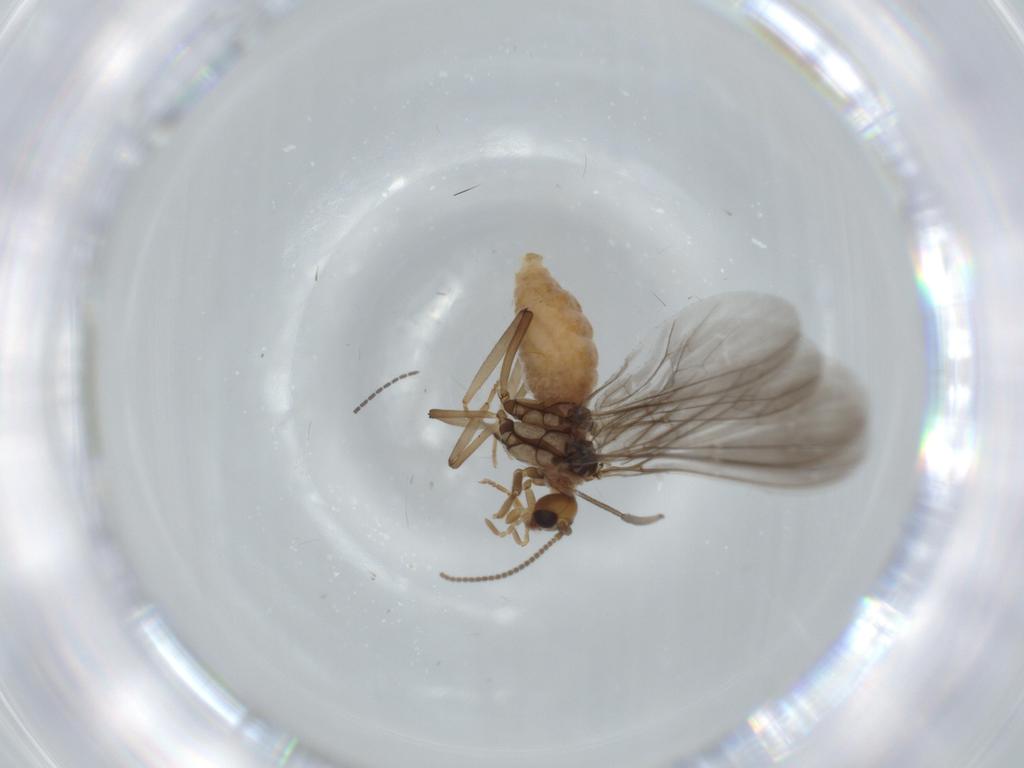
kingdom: Animalia
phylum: Arthropoda
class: Insecta
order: Neuroptera
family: Coniopterygidae
